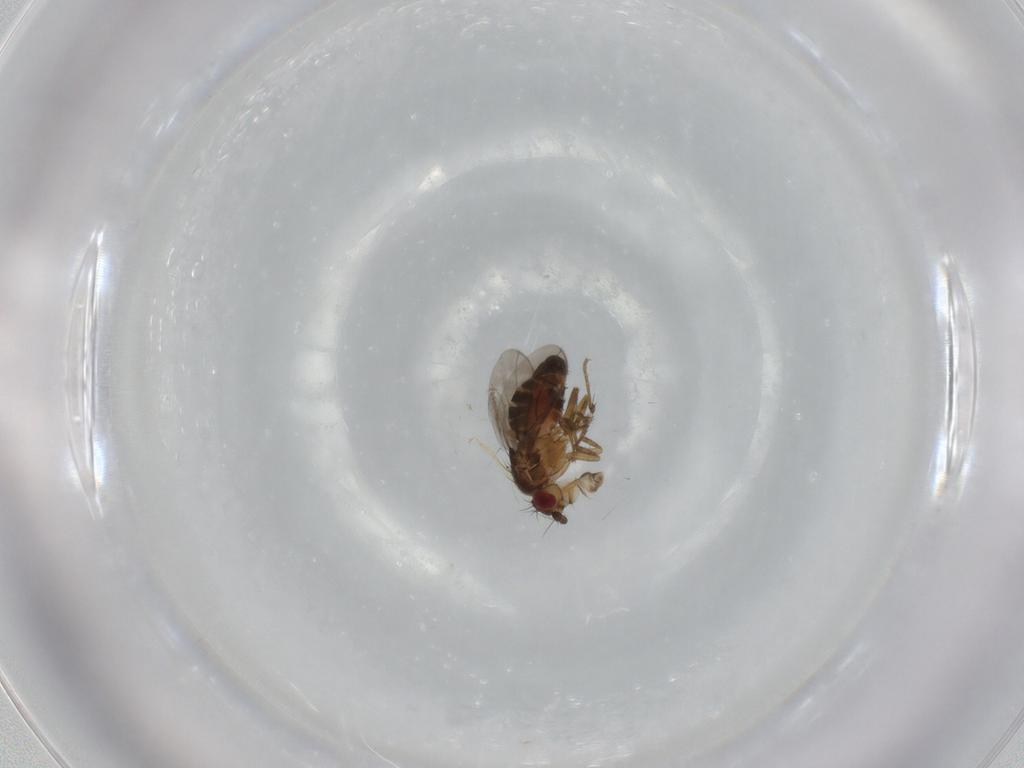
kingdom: Animalia
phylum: Arthropoda
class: Insecta
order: Diptera
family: Sphaeroceridae
